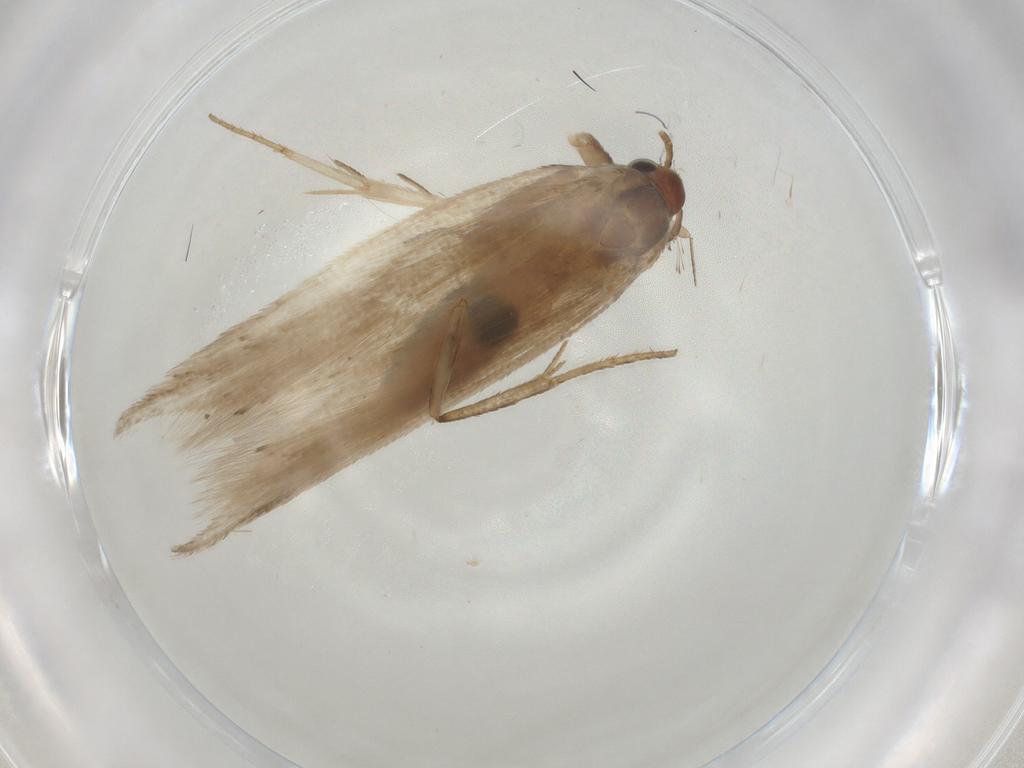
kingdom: Animalia
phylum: Arthropoda
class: Insecta
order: Lepidoptera
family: Gelechiidae
